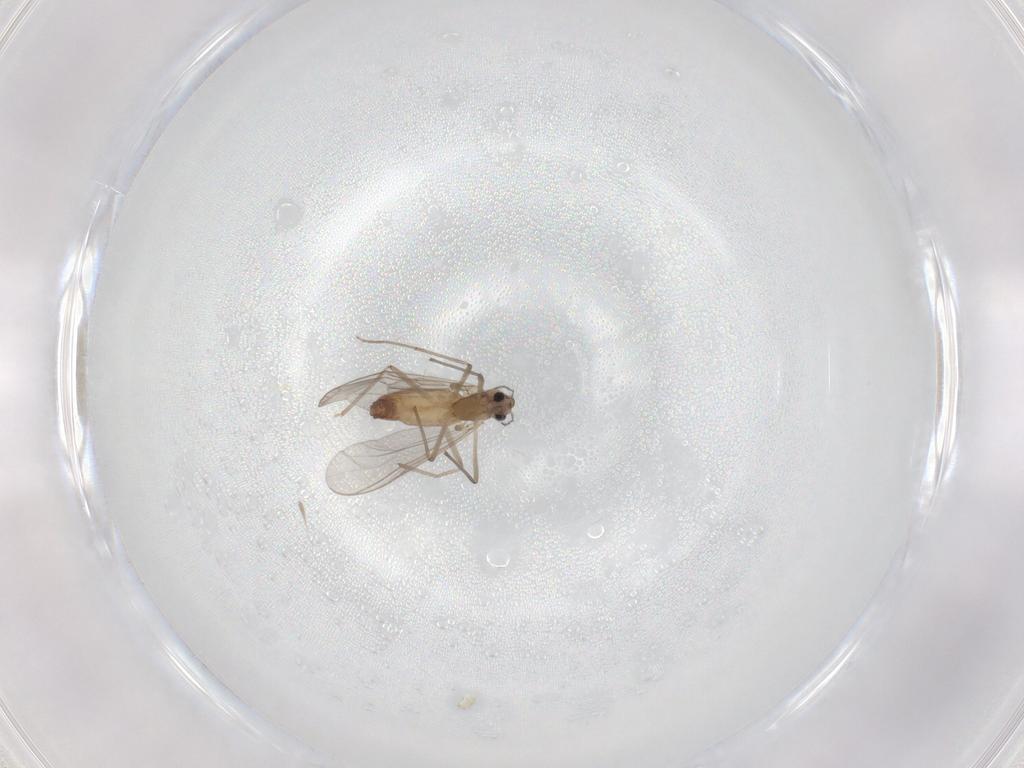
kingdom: Animalia
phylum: Arthropoda
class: Insecta
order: Diptera
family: Chironomidae
